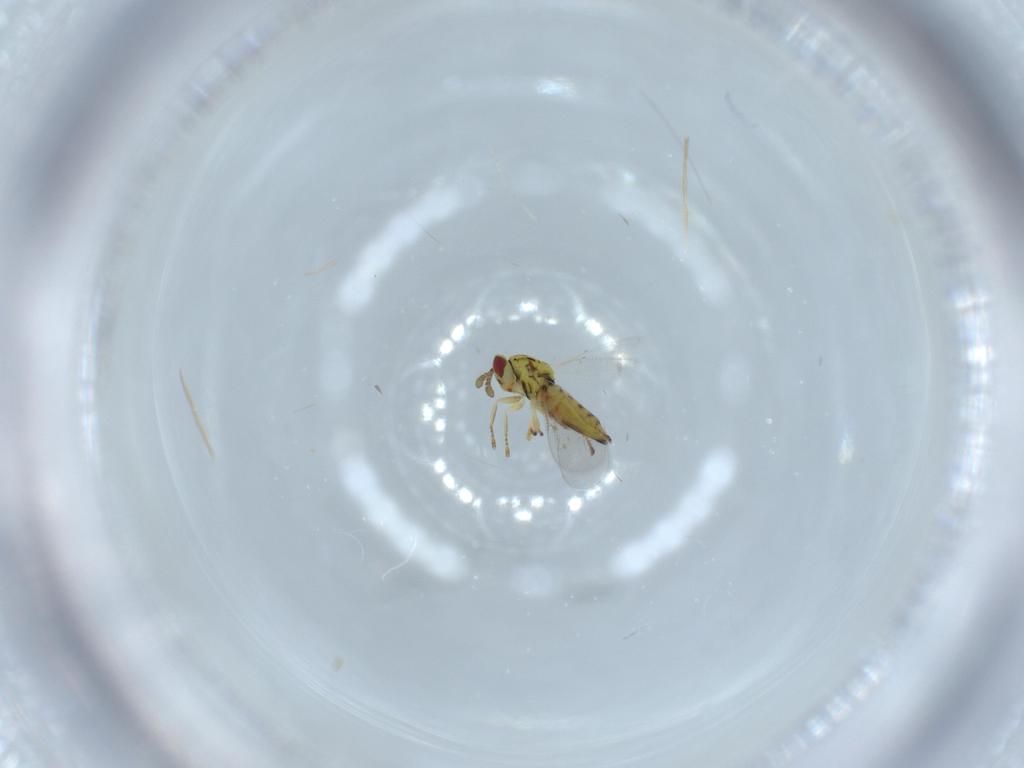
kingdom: Animalia
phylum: Arthropoda
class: Insecta
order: Hymenoptera
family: Eulophidae
